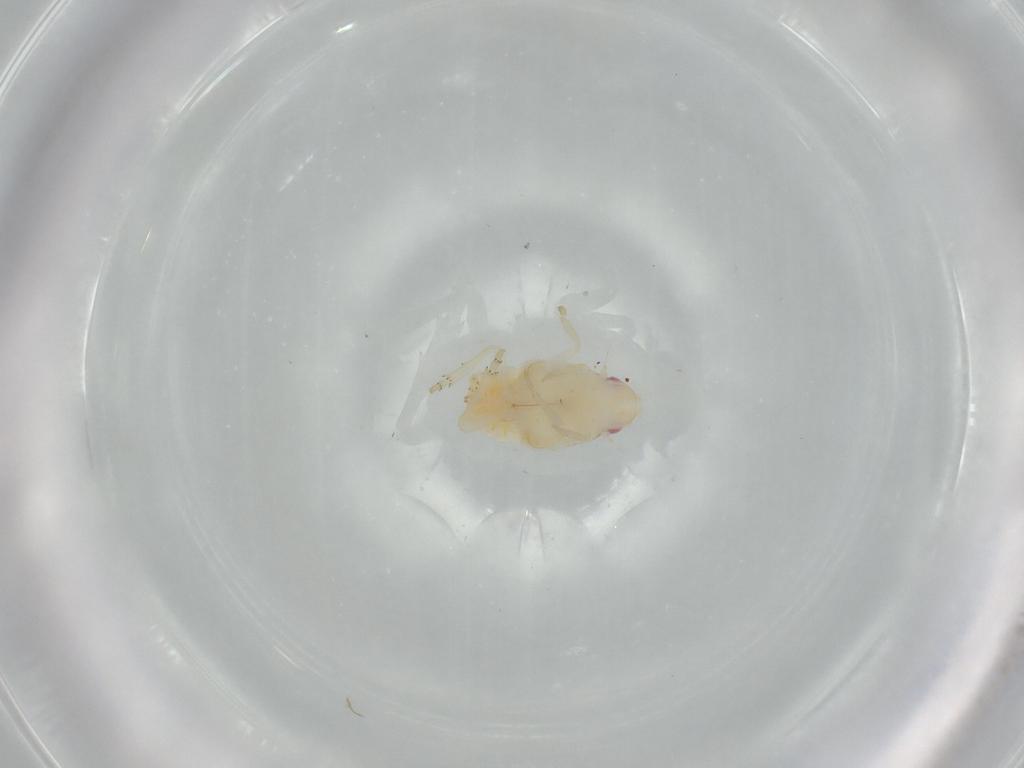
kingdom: Animalia
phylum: Arthropoda
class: Insecta
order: Hemiptera
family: Flatidae
